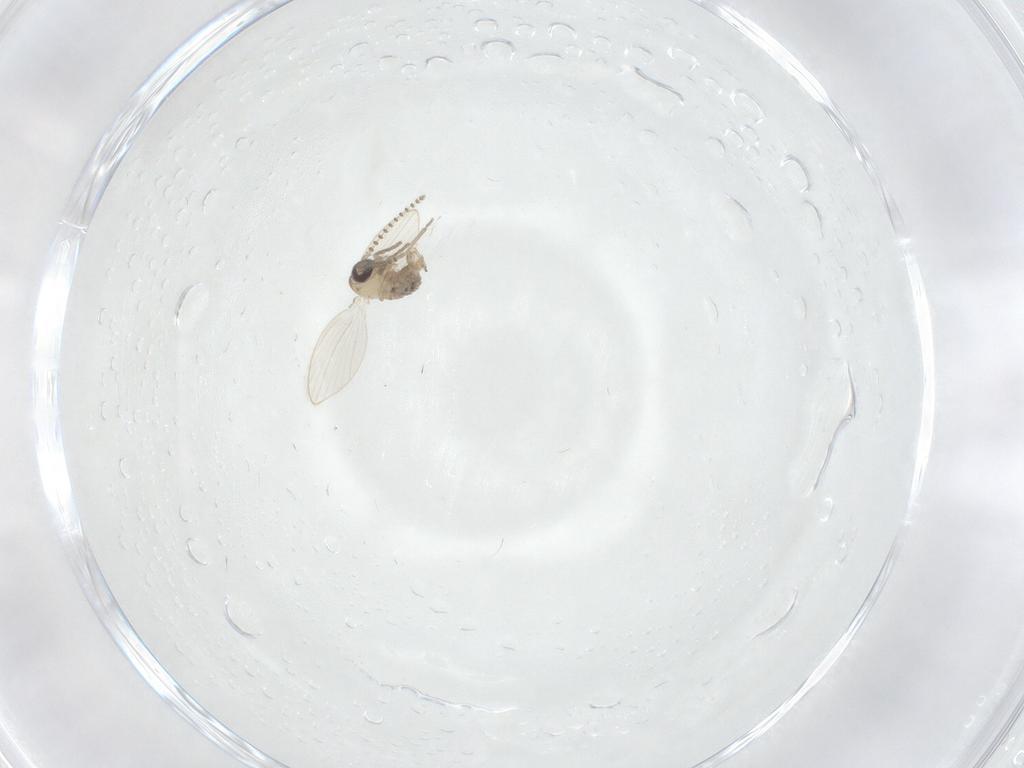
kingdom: Animalia
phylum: Arthropoda
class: Insecta
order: Diptera
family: Psychodidae
